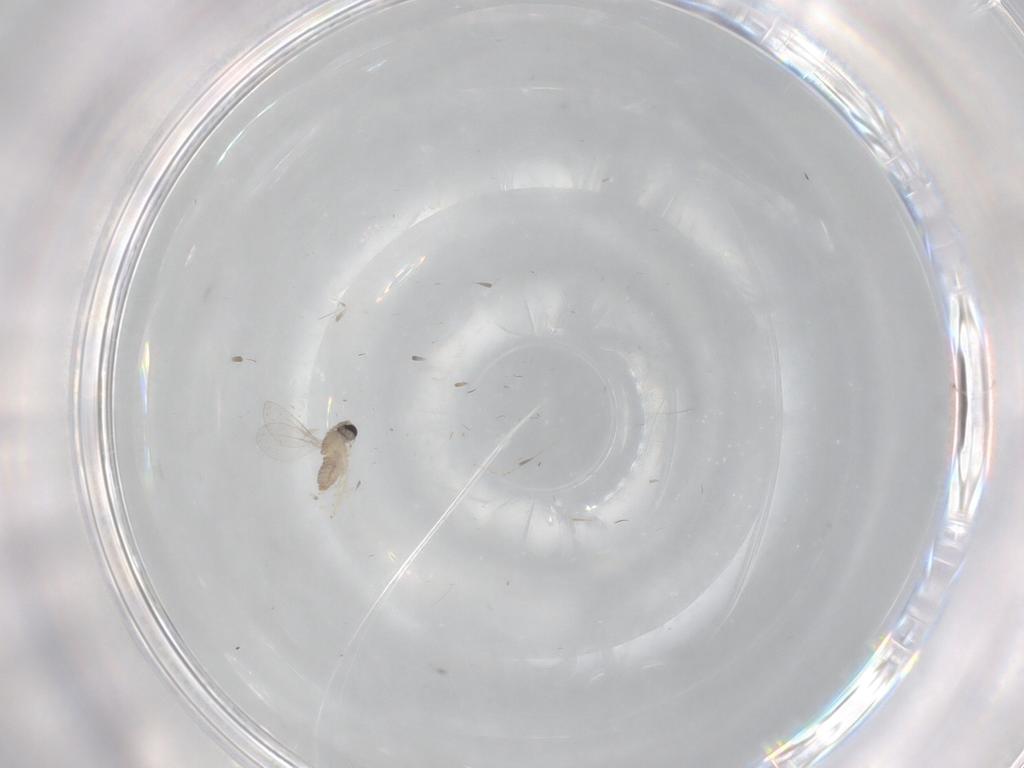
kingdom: Animalia
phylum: Arthropoda
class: Insecta
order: Diptera
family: Cecidomyiidae
